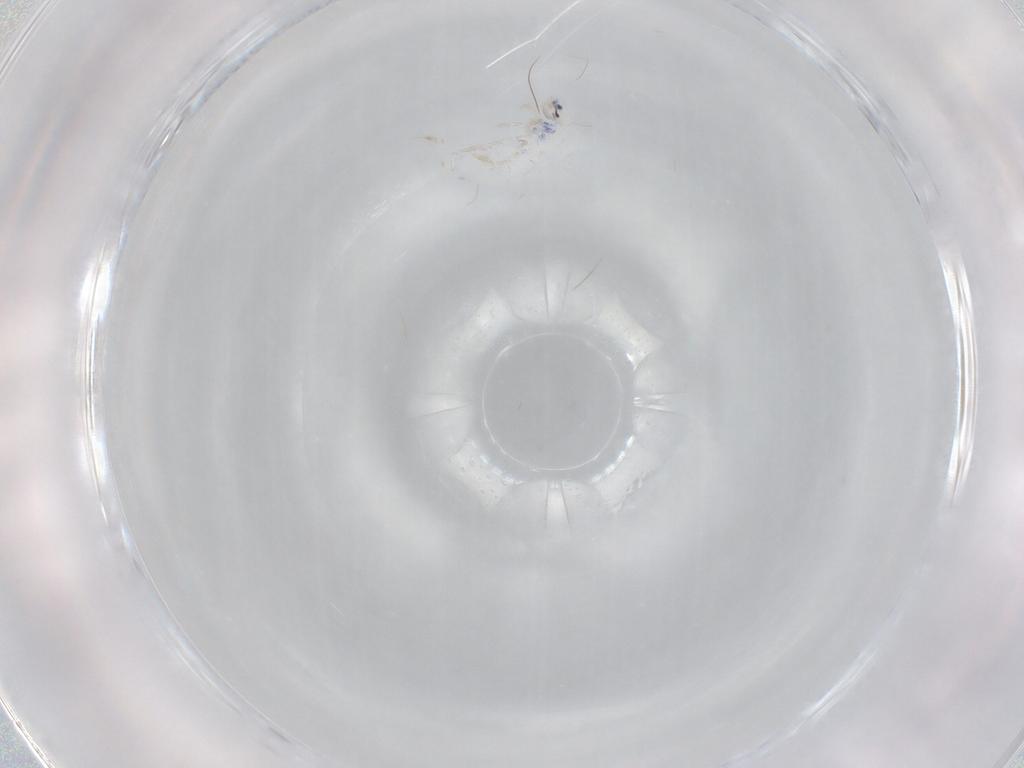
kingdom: Animalia
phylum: Arthropoda
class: Collembola
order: Entomobryomorpha
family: Entomobryidae
